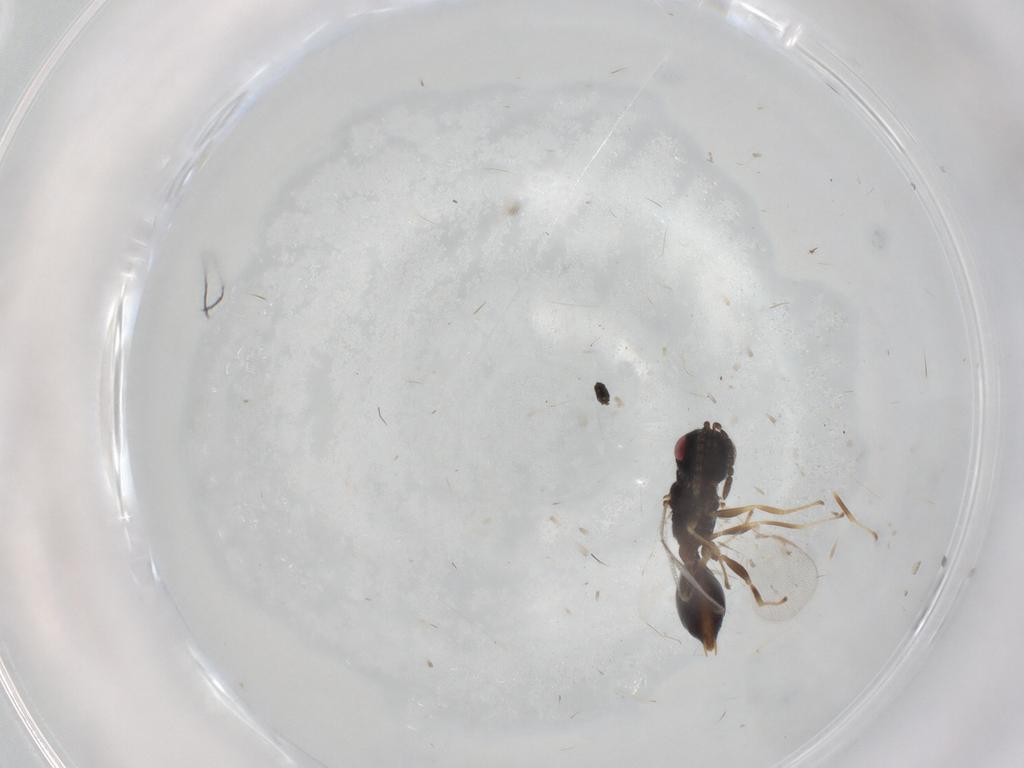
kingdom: Animalia
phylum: Arthropoda
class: Insecta
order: Hymenoptera
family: Eurytomidae
